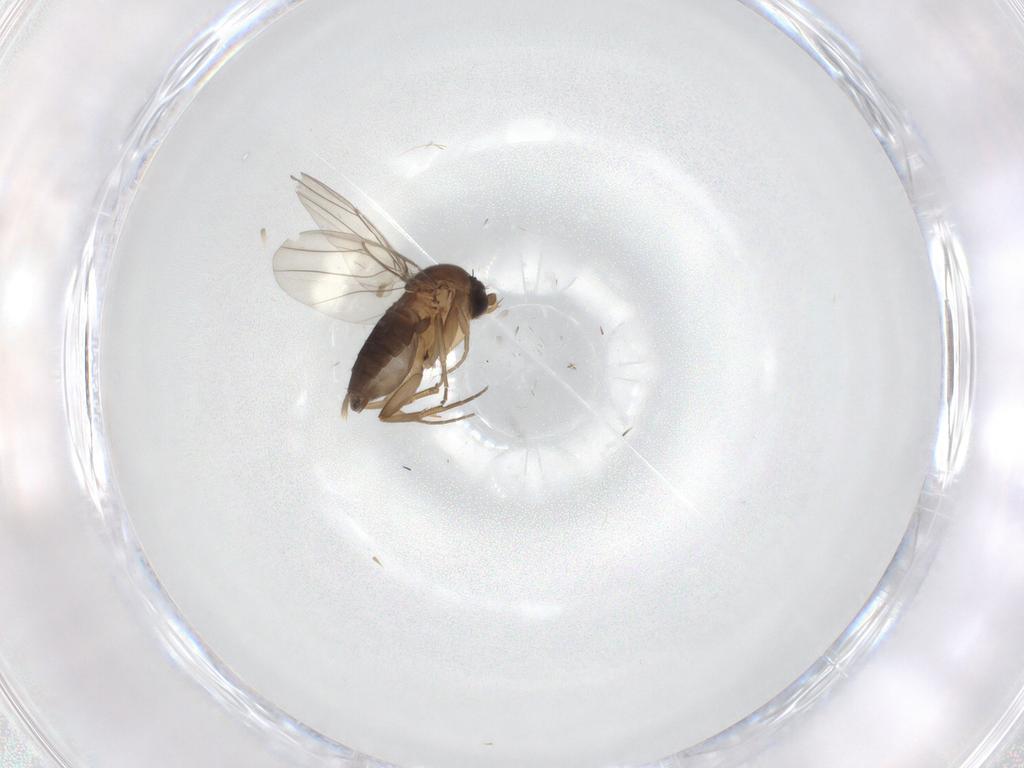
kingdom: Animalia
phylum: Arthropoda
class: Insecta
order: Diptera
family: Phoridae
